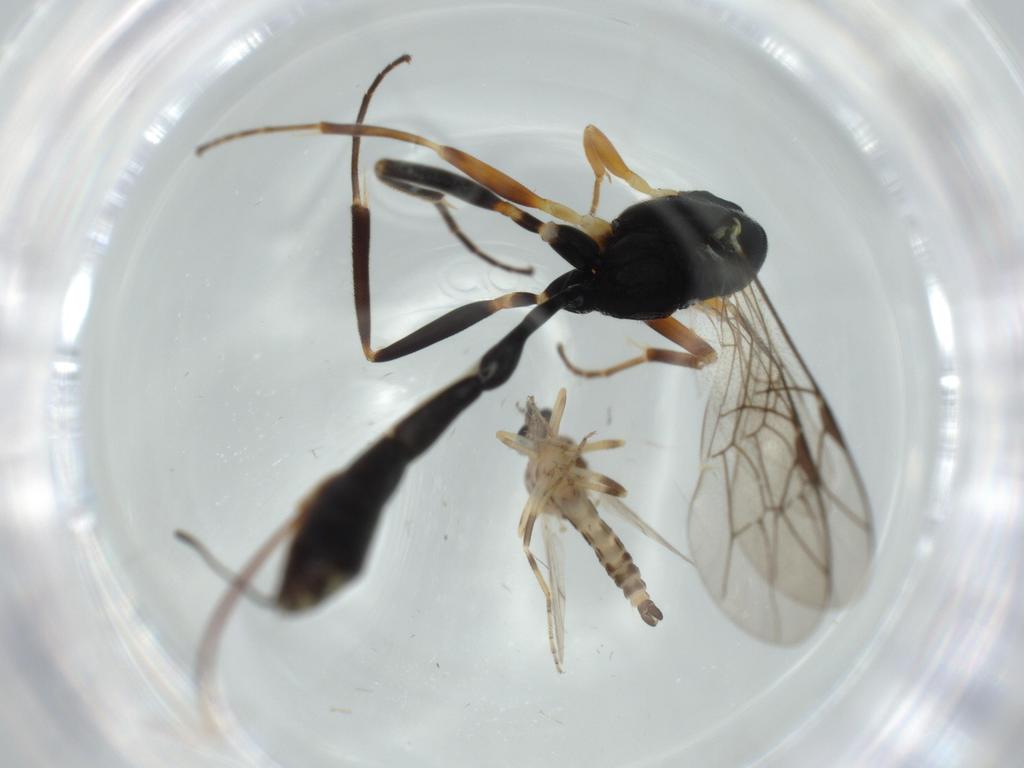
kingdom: Animalia
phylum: Arthropoda
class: Insecta
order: Diptera
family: Ceratopogonidae
